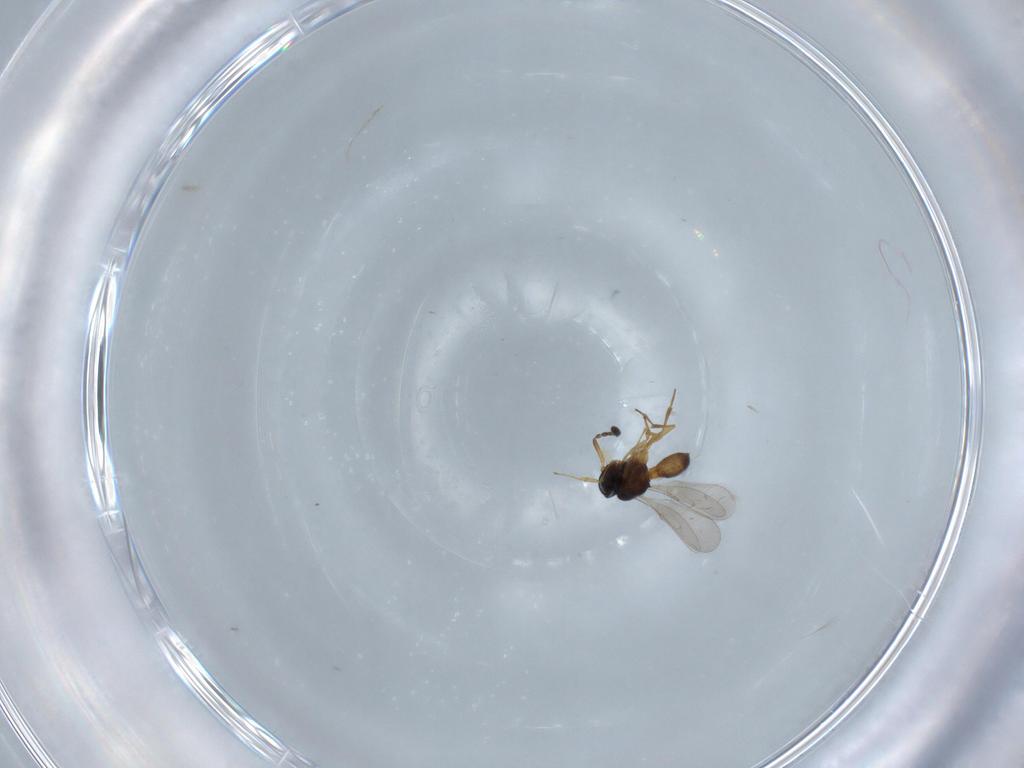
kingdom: Animalia
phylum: Arthropoda
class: Insecta
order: Hymenoptera
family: Scelionidae
